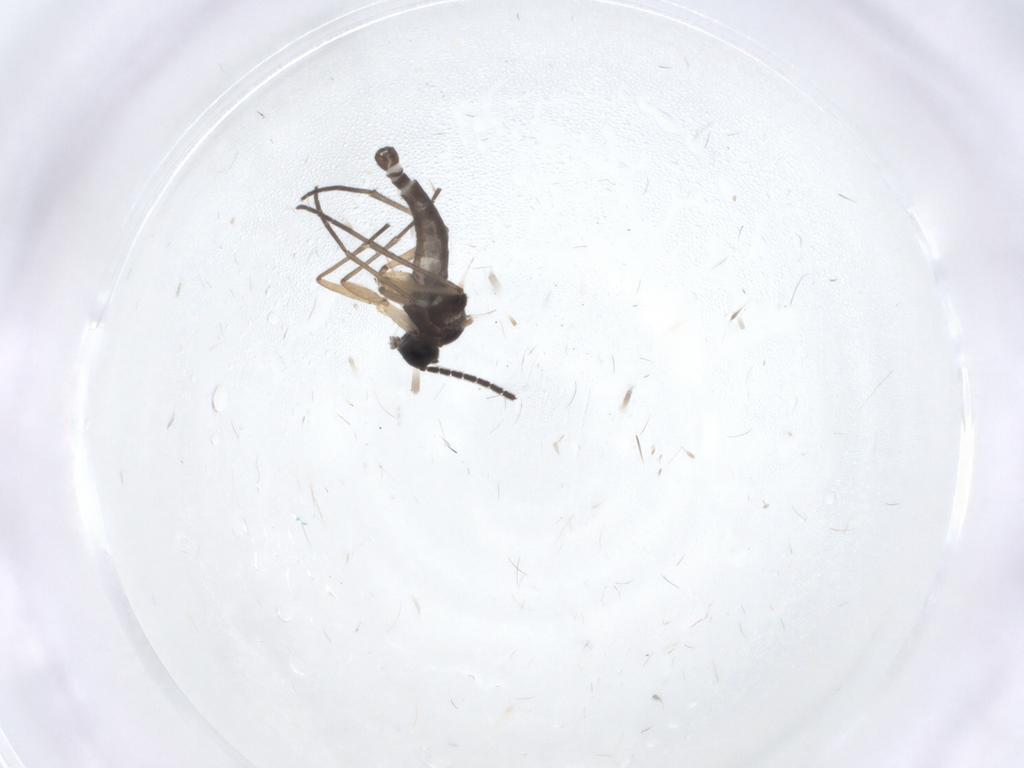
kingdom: Animalia
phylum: Arthropoda
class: Insecta
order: Diptera
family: Sciaridae
